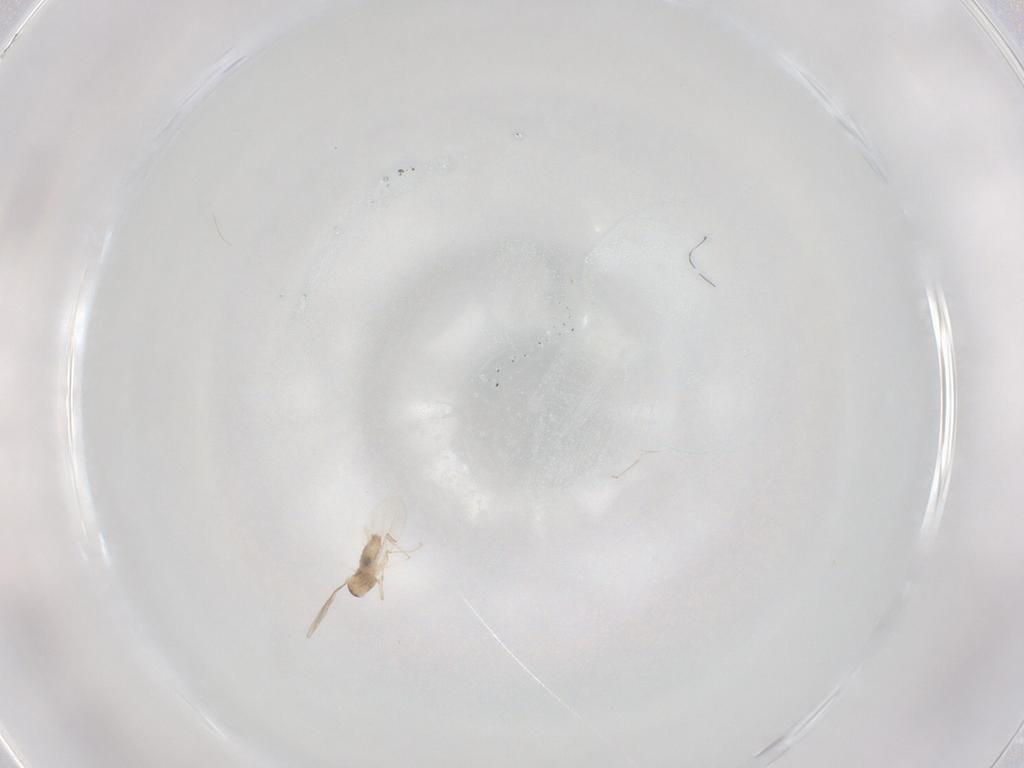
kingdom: Animalia
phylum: Arthropoda
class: Insecta
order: Diptera
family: Cecidomyiidae
